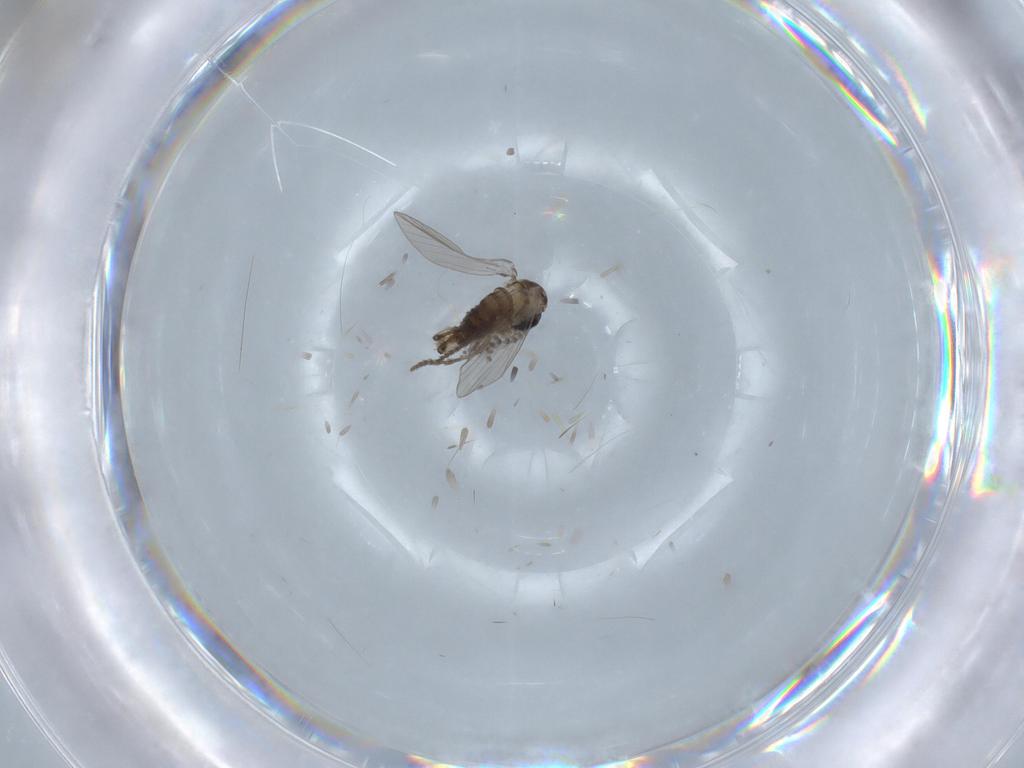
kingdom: Animalia
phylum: Arthropoda
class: Insecta
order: Diptera
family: Psychodidae
